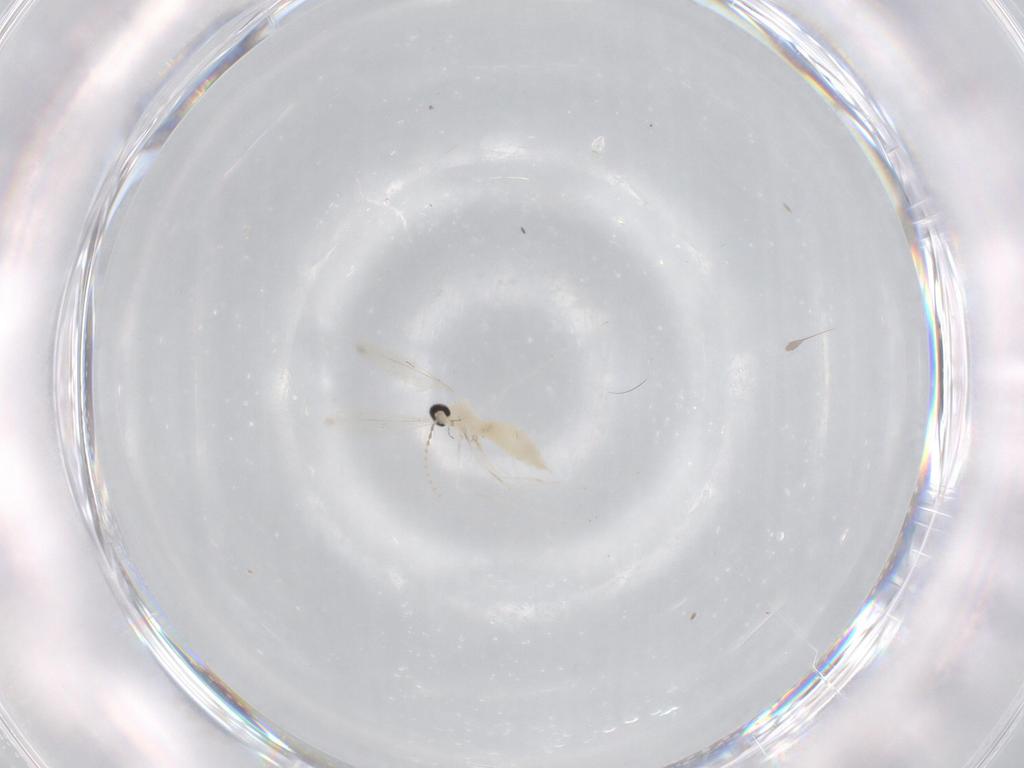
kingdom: Animalia
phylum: Arthropoda
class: Insecta
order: Diptera
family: Cecidomyiidae
